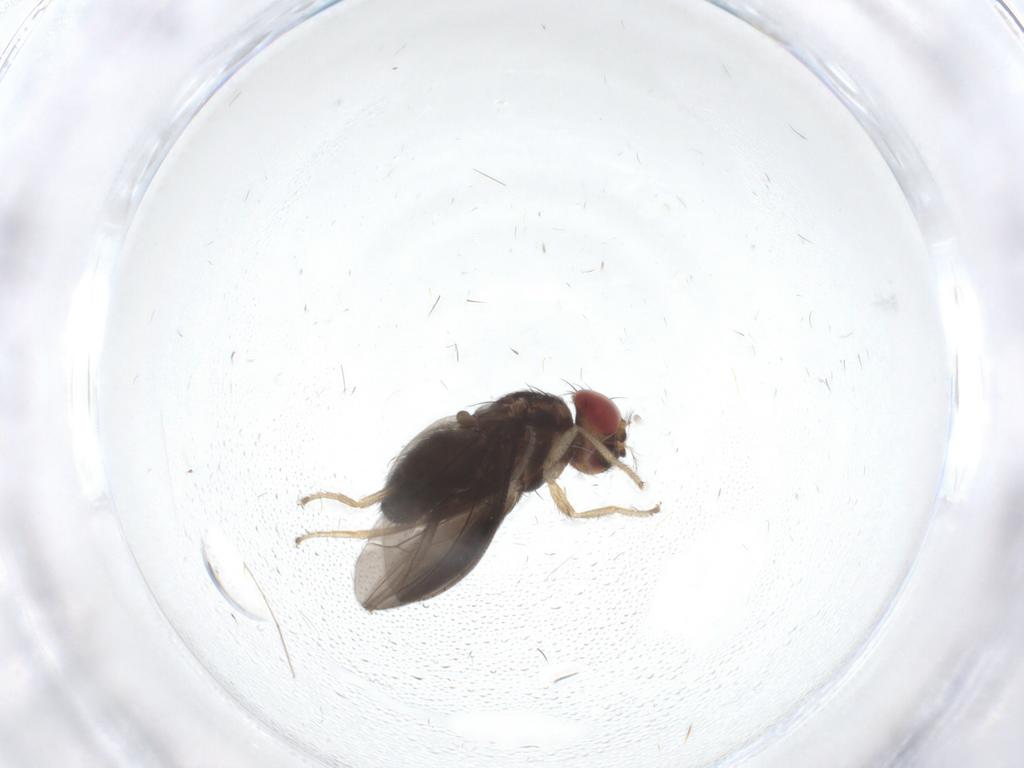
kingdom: Animalia
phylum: Arthropoda
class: Insecta
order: Diptera
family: Drosophilidae
